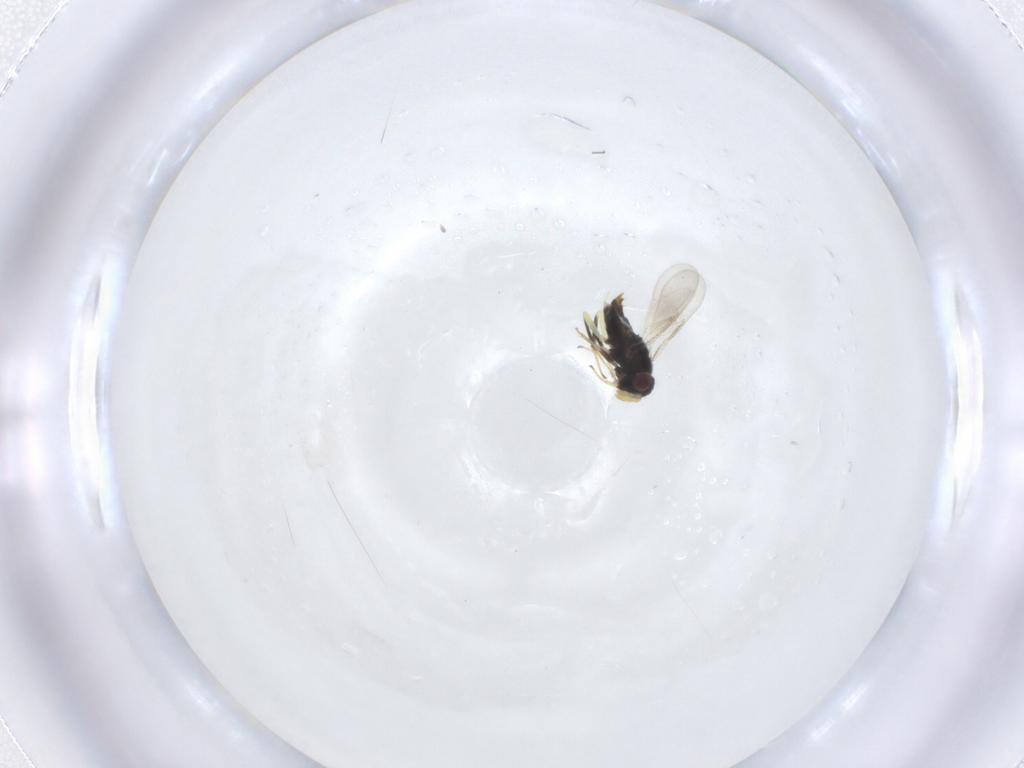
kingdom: Animalia
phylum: Arthropoda
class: Insecta
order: Hymenoptera
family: Aphelinidae
